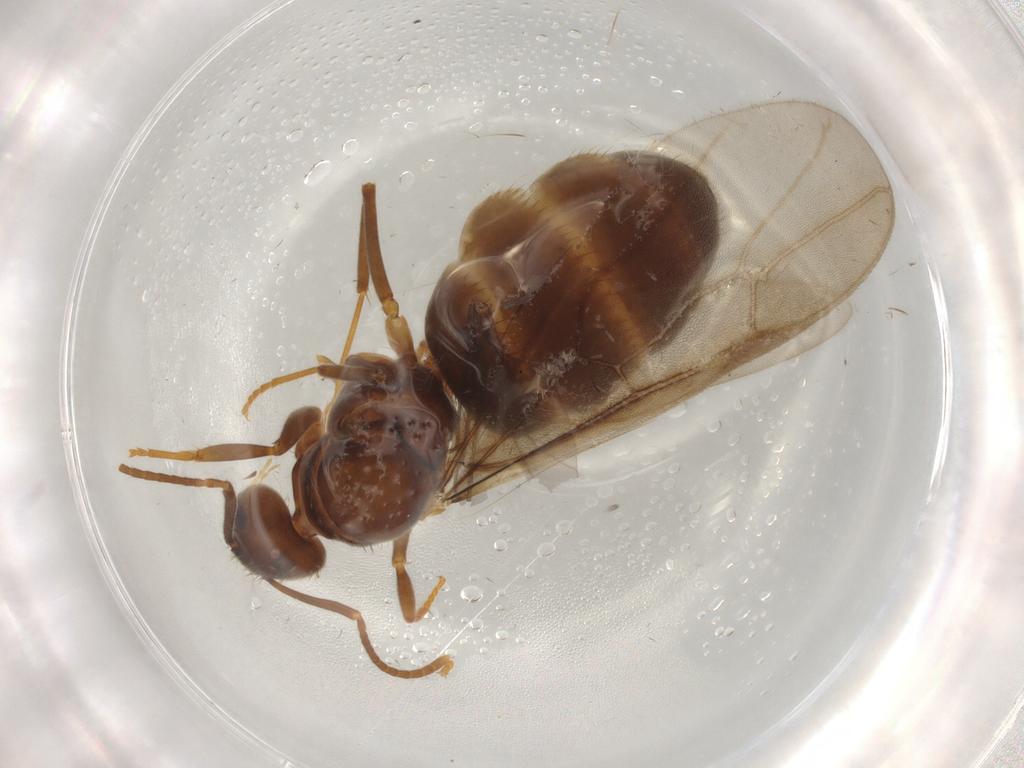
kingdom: Animalia
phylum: Arthropoda
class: Insecta
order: Hymenoptera
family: Formicidae
